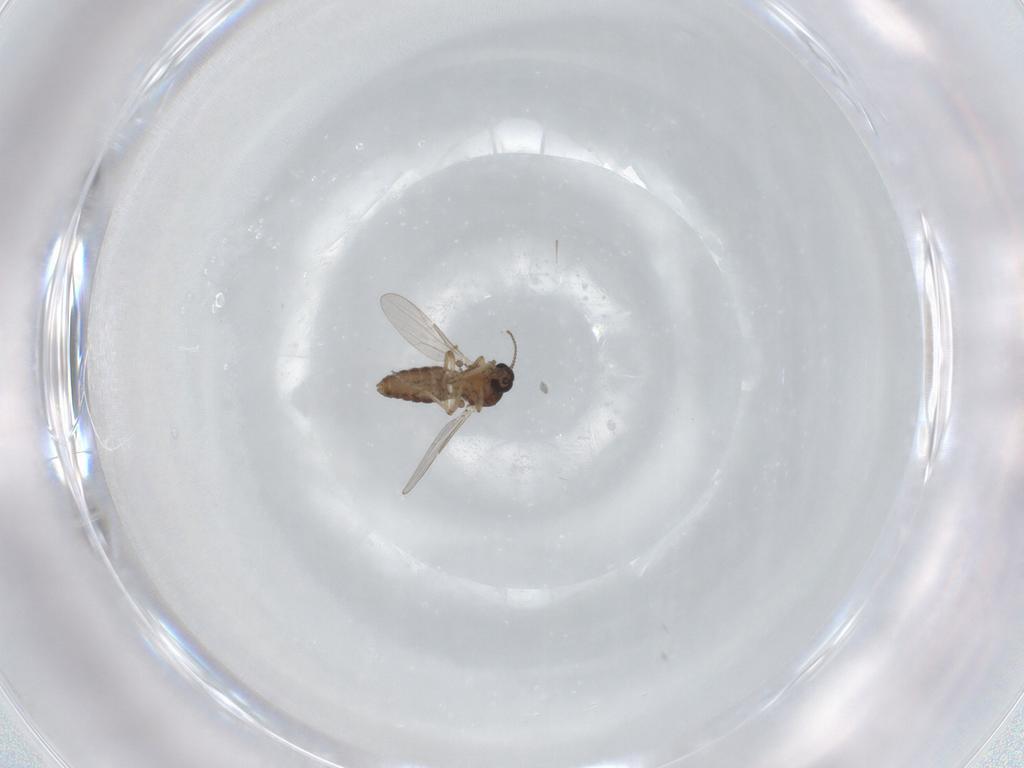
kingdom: Animalia
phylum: Arthropoda
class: Insecta
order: Diptera
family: Ceratopogonidae
